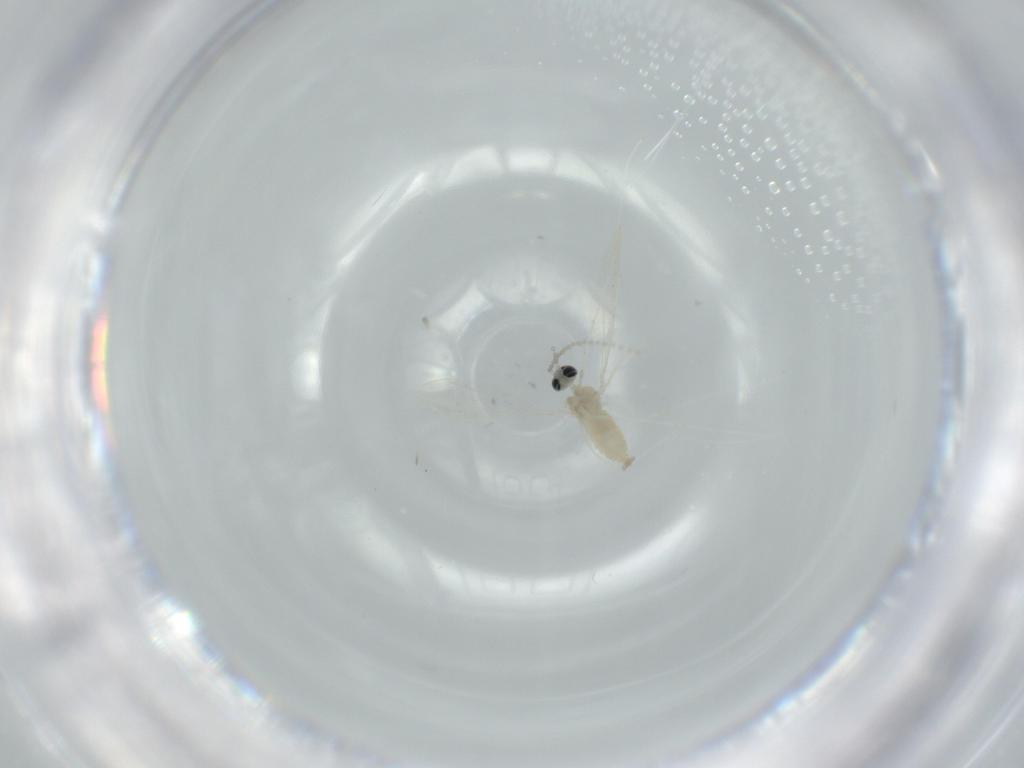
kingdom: Animalia
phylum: Arthropoda
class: Insecta
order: Diptera
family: Cecidomyiidae
